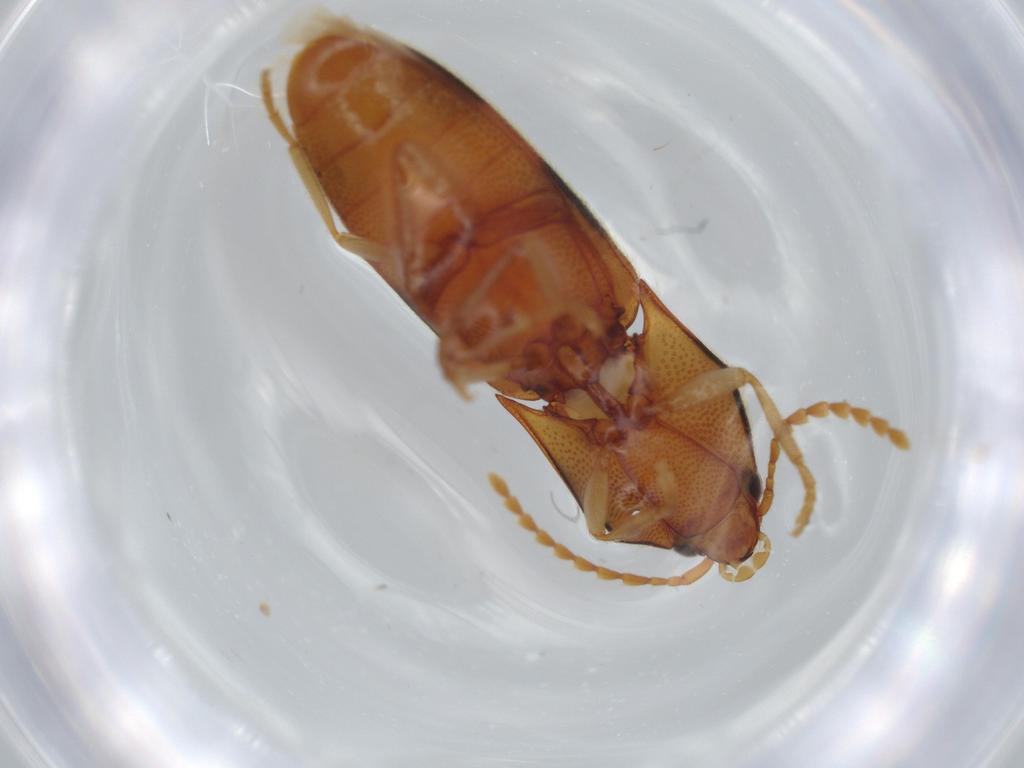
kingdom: Animalia
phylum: Arthropoda
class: Insecta
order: Coleoptera
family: Elateridae
